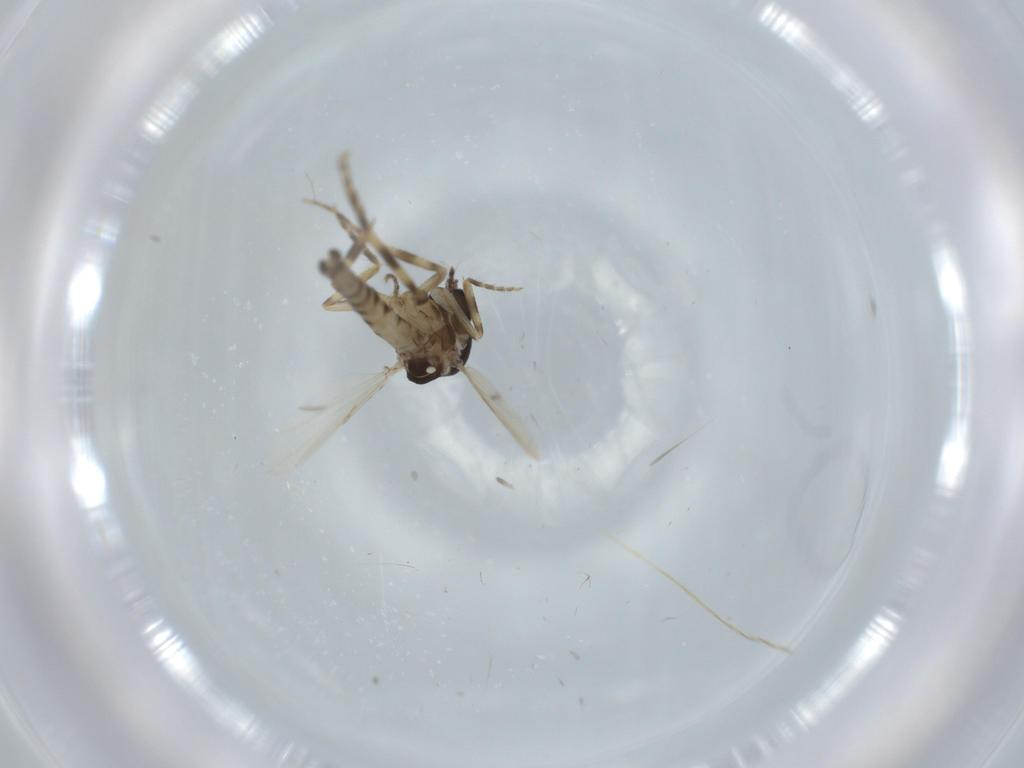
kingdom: Animalia
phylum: Arthropoda
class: Insecta
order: Diptera
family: Ceratopogonidae
